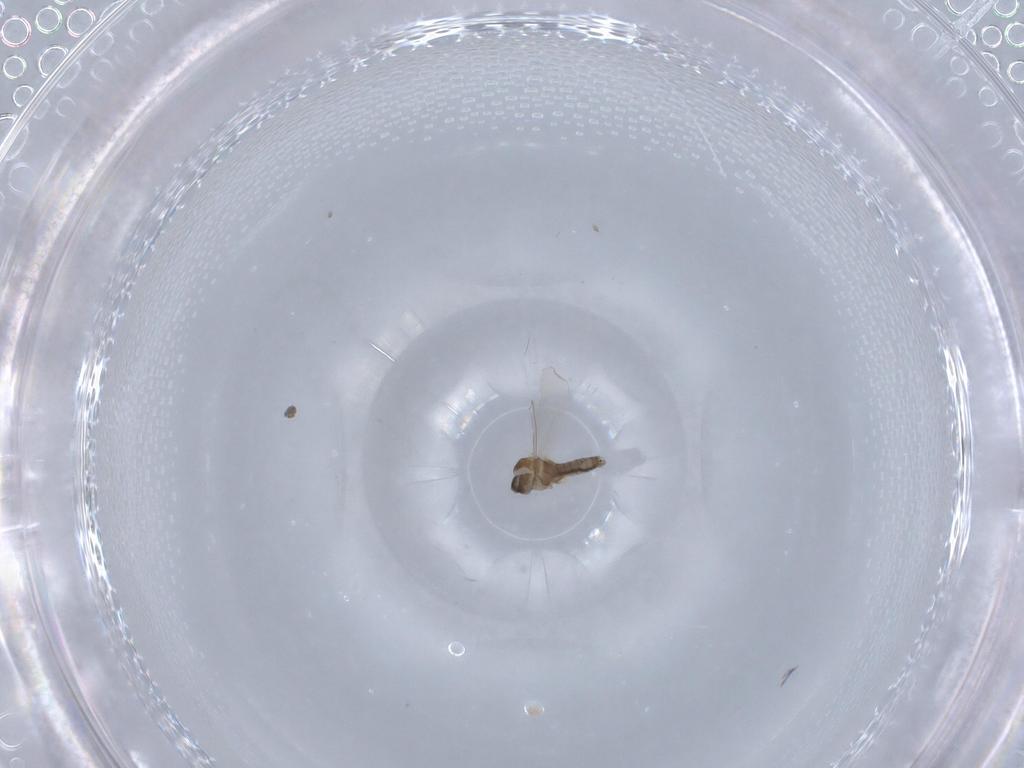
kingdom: Animalia
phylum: Arthropoda
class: Insecta
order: Diptera
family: Cecidomyiidae
